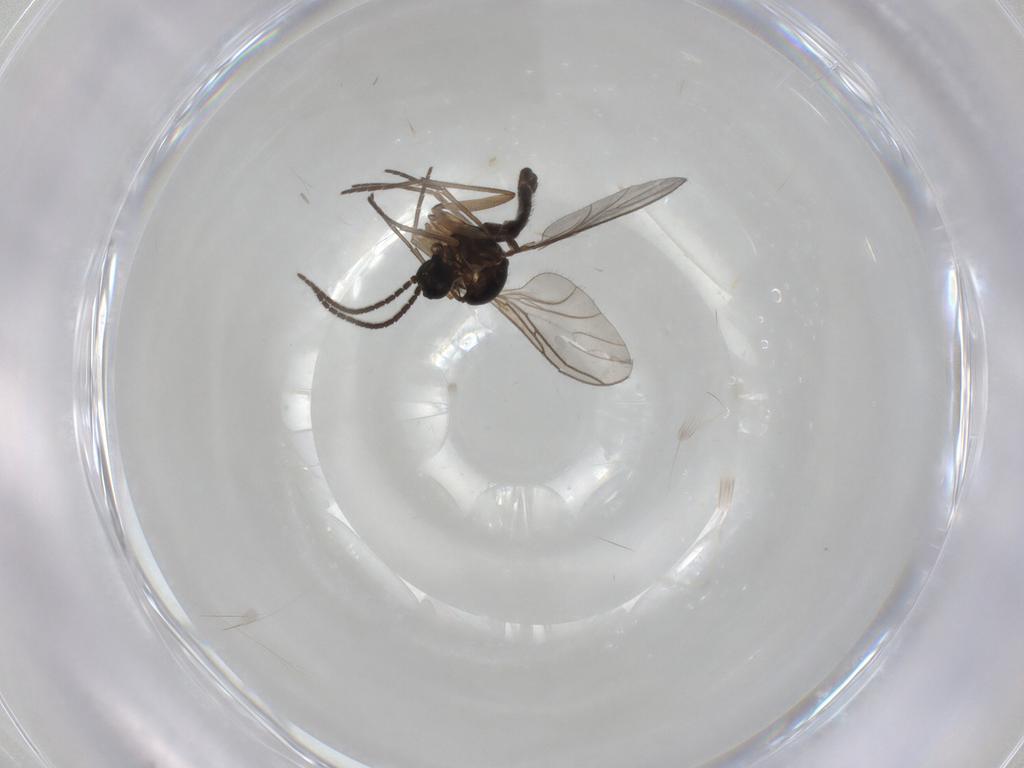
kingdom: Animalia
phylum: Arthropoda
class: Insecta
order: Diptera
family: Sciaridae
